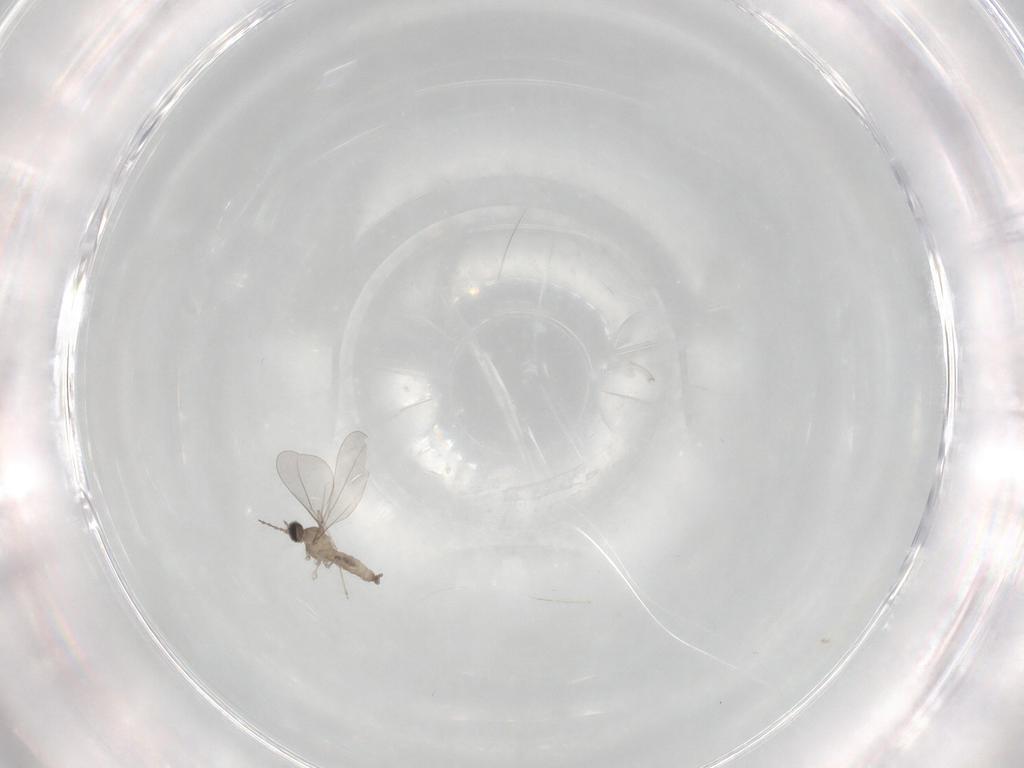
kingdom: Animalia
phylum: Arthropoda
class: Insecta
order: Diptera
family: Cecidomyiidae
